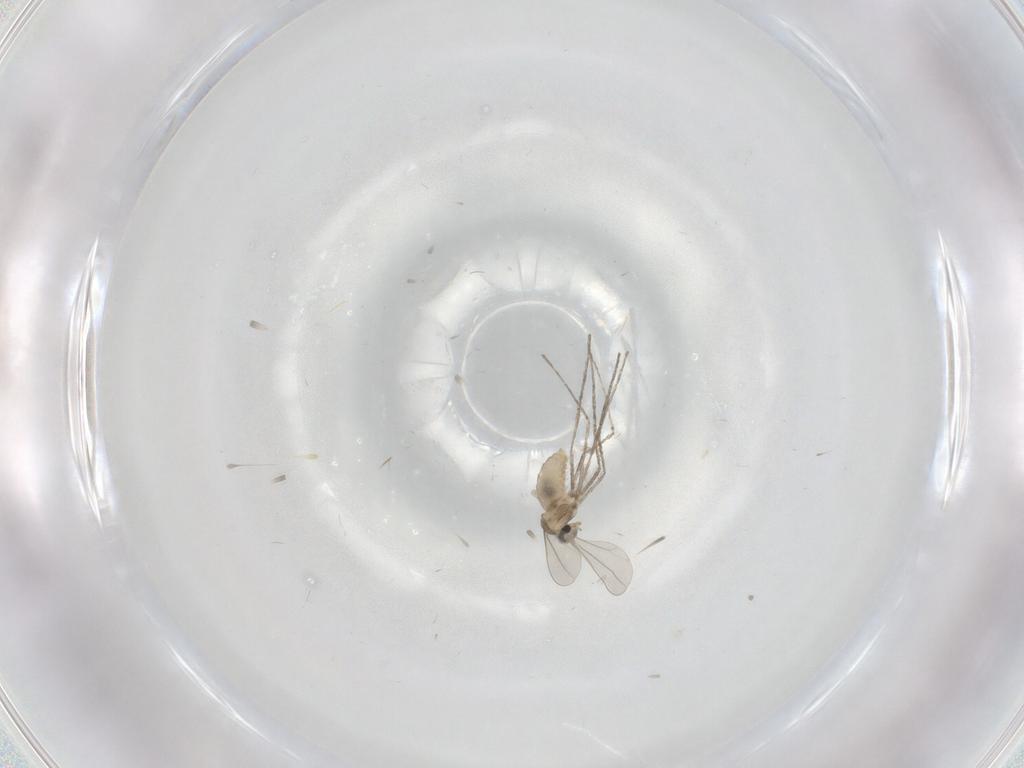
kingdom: Animalia
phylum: Arthropoda
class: Insecta
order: Diptera
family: Cecidomyiidae
